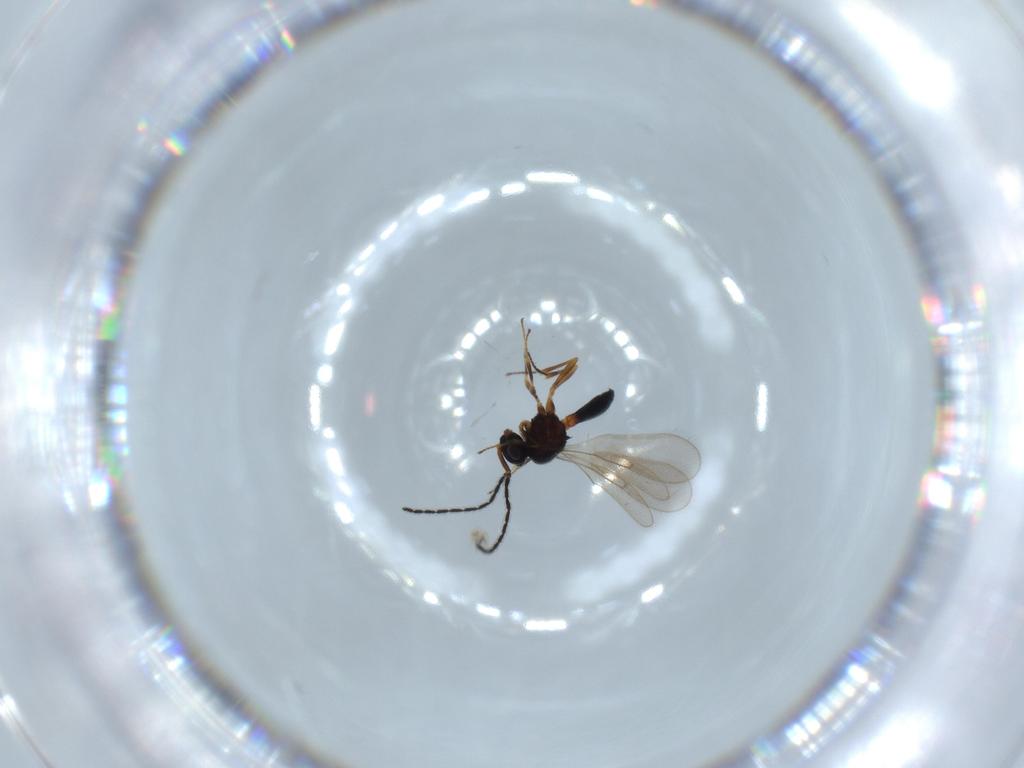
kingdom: Animalia
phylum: Arthropoda
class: Insecta
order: Hymenoptera
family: Scelionidae
